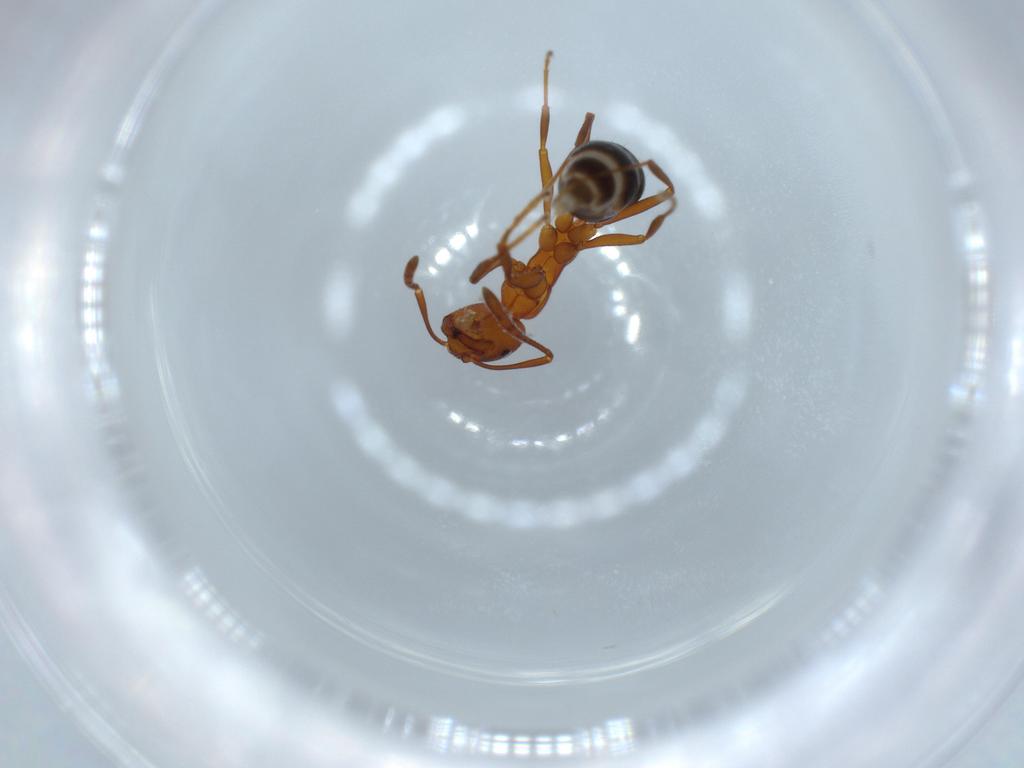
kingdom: Animalia
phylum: Arthropoda
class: Insecta
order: Hymenoptera
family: Formicidae
